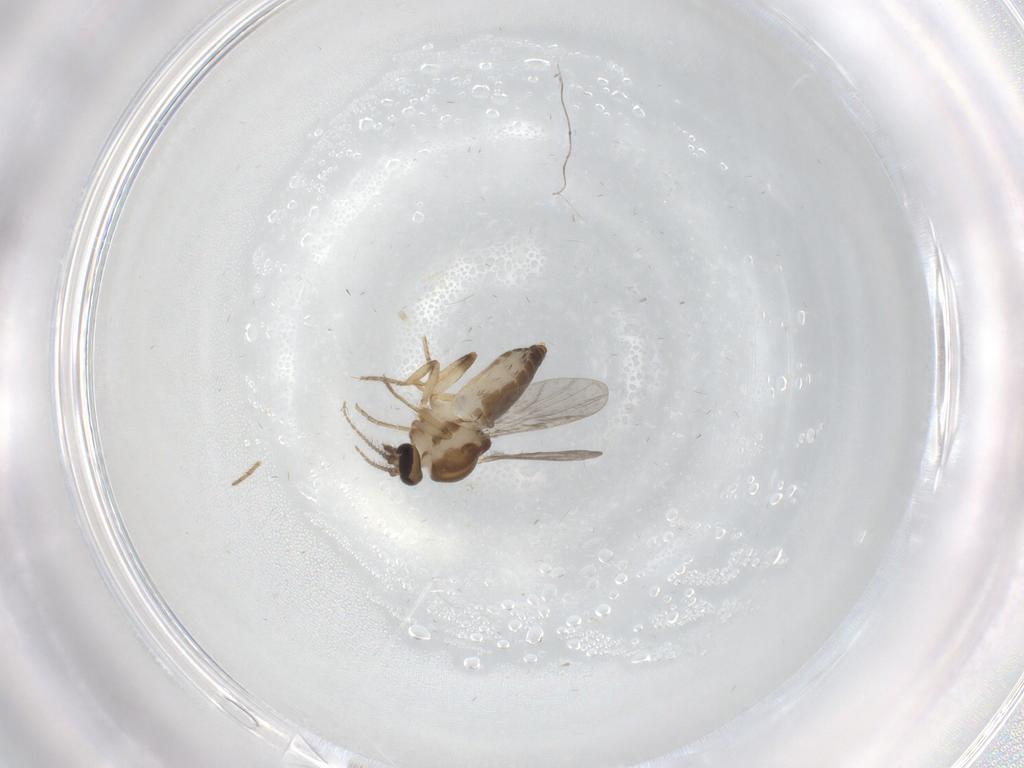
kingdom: Animalia
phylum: Arthropoda
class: Insecta
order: Diptera
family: Ceratopogonidae
